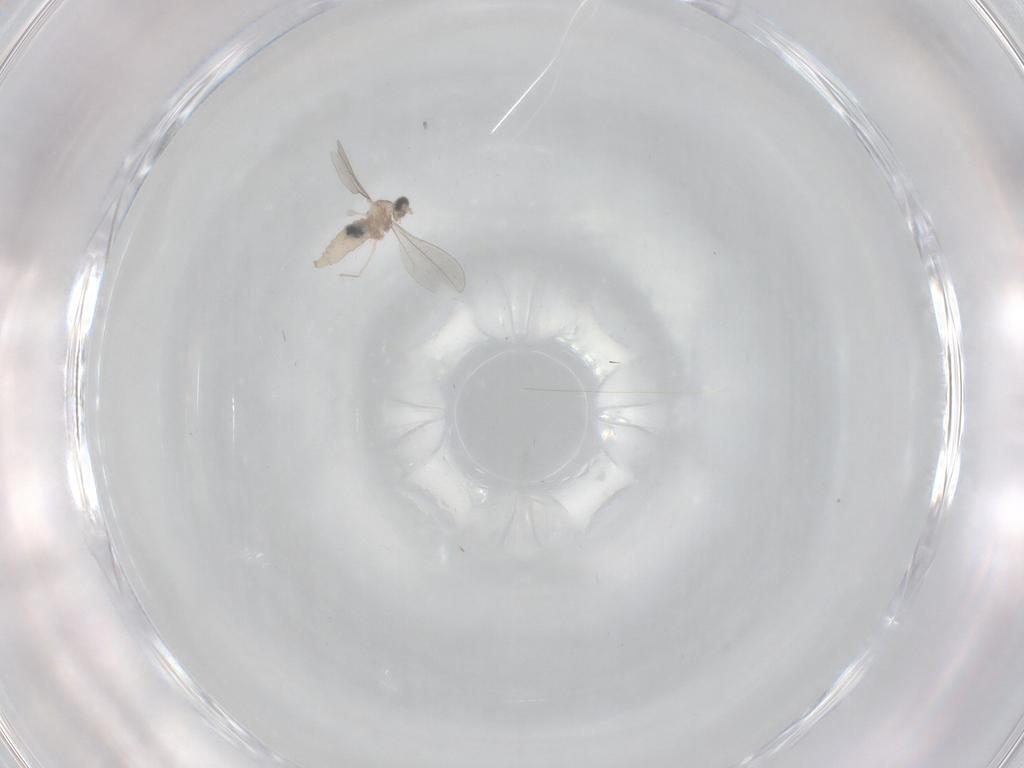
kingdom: Animalia
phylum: Arthropoda
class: Insecta
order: Diptera
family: Cecidomyiidae
